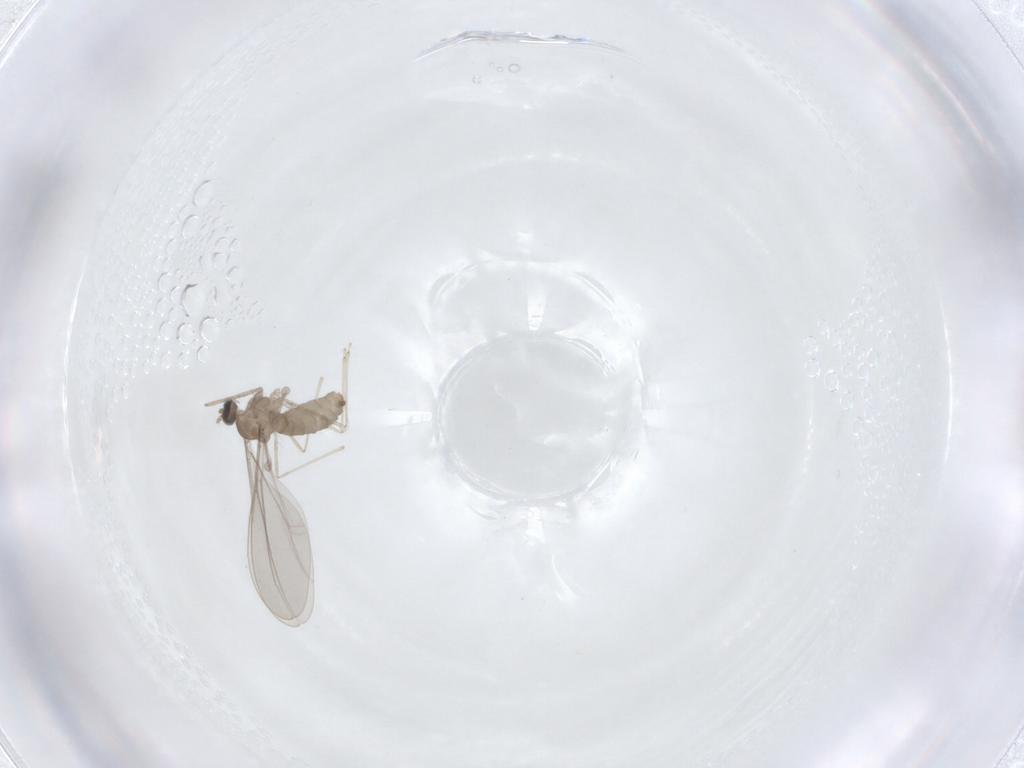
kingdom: Animalia
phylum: Arthropoda
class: Insecta
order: Diptera
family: Cecidomyiidae
